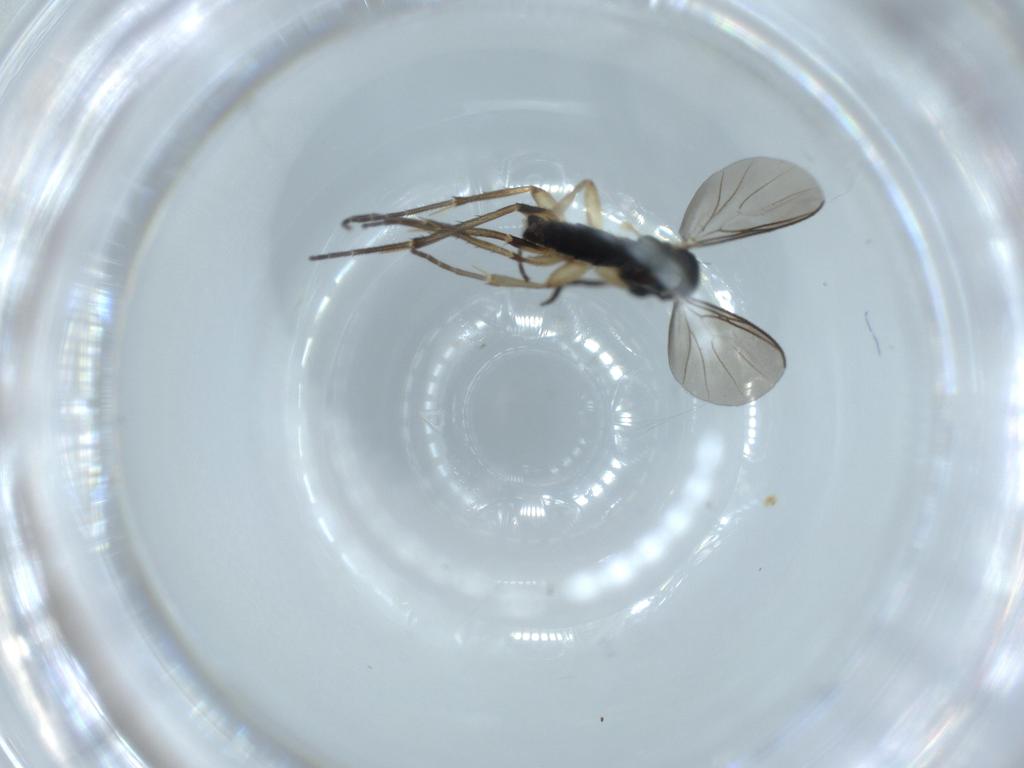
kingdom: Animalia
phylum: Arthropoda
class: Insecta
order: Diptera
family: Mycetophilidae
